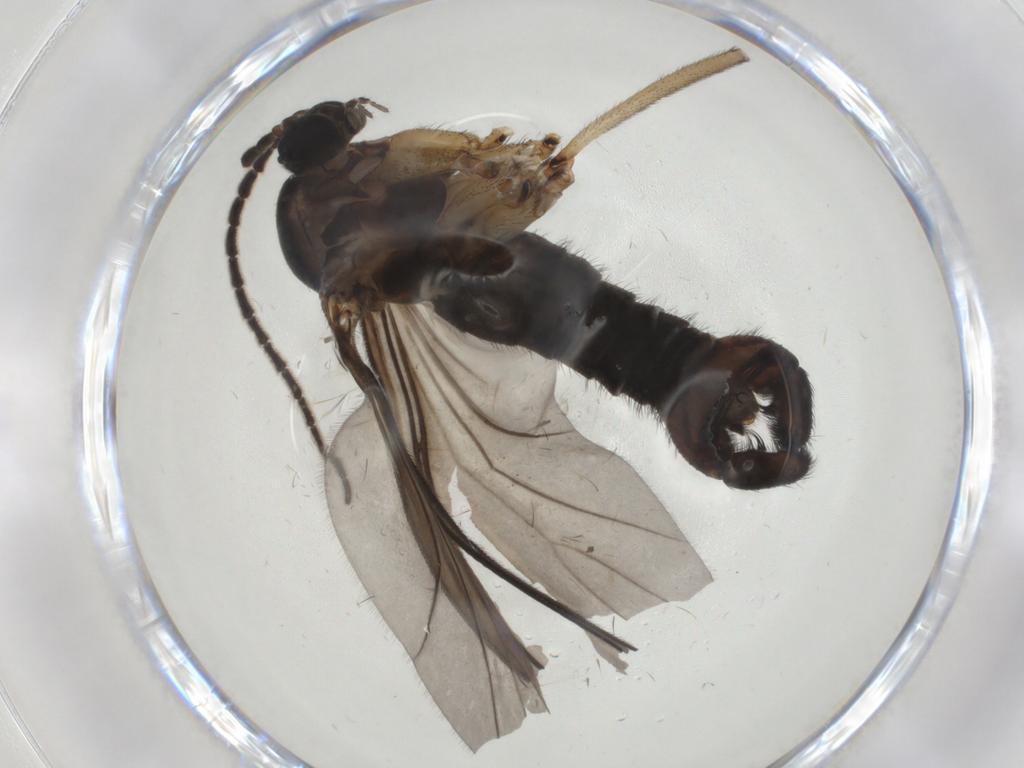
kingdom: Animalia
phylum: Arthropoda
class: Insecta
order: Diptera
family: Sciaridae
